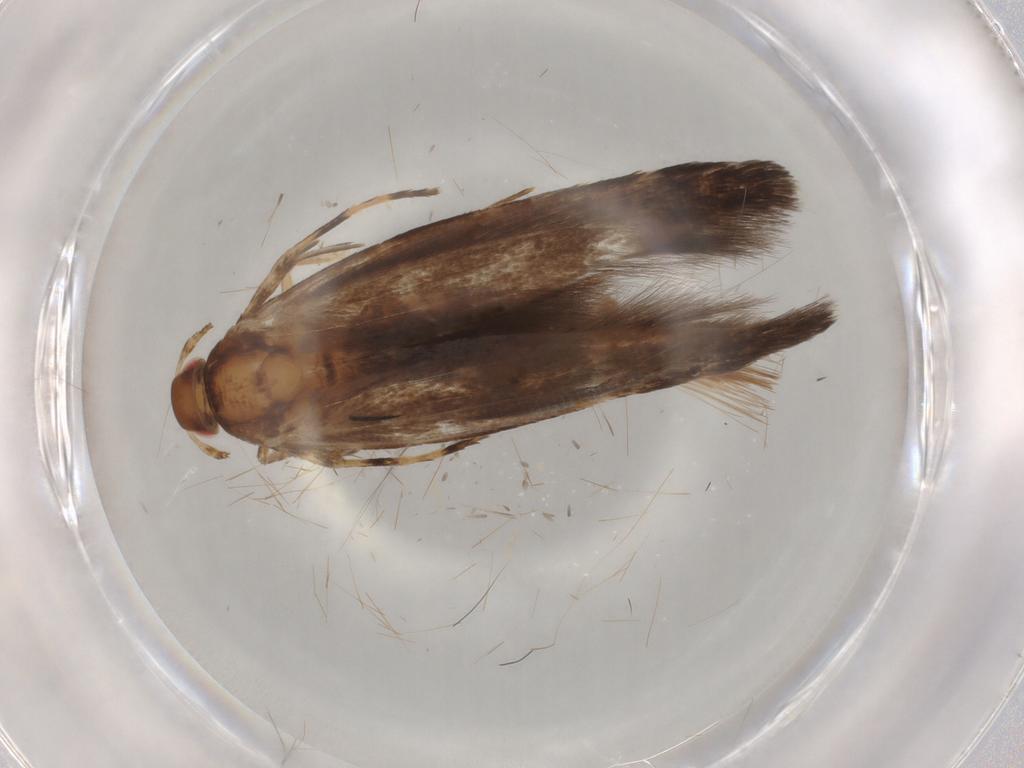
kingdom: Animalia
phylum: Arthropoda
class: Insecta
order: Lepidoptera
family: Cosmopterigidae
